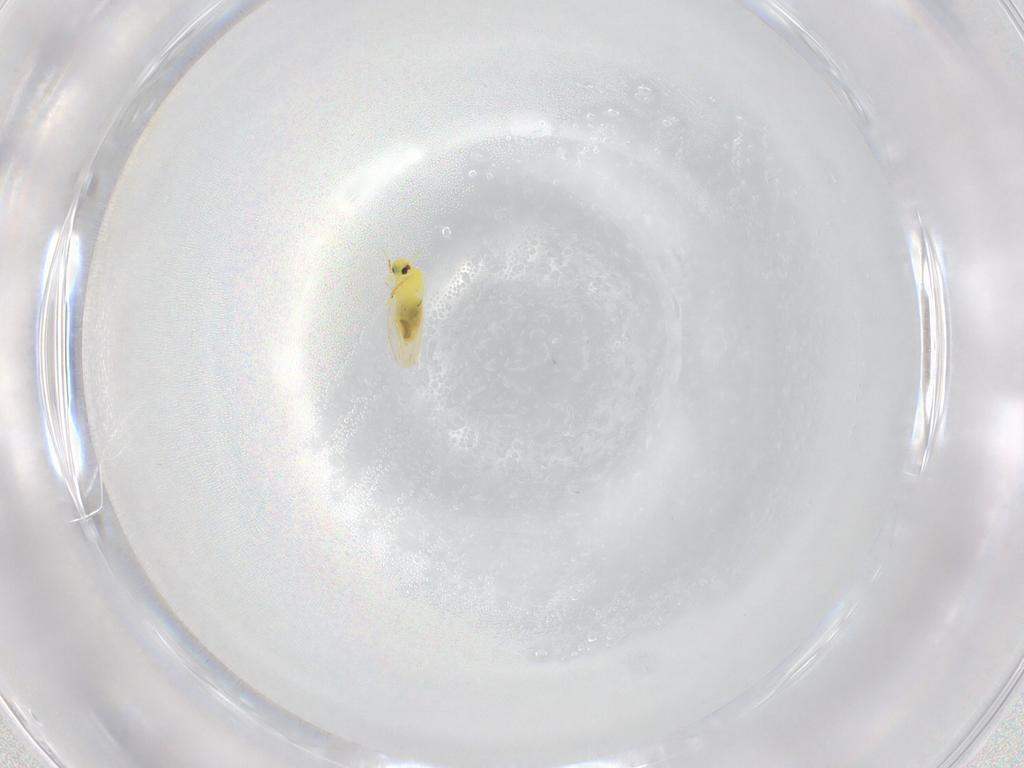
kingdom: Animalia
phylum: Arthropoda
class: Insecta
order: Hemiptera
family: Aleyrodidae
